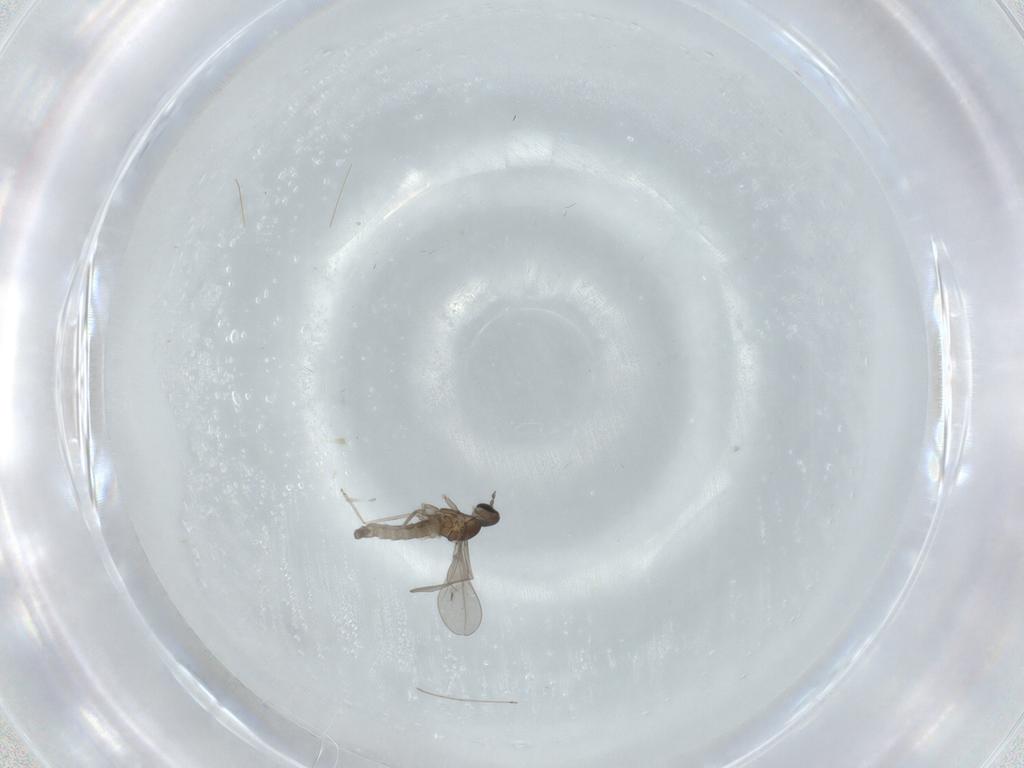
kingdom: Animalia
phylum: Arthropoda
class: Insecta
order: Diptera
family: Cecidomyiidae
